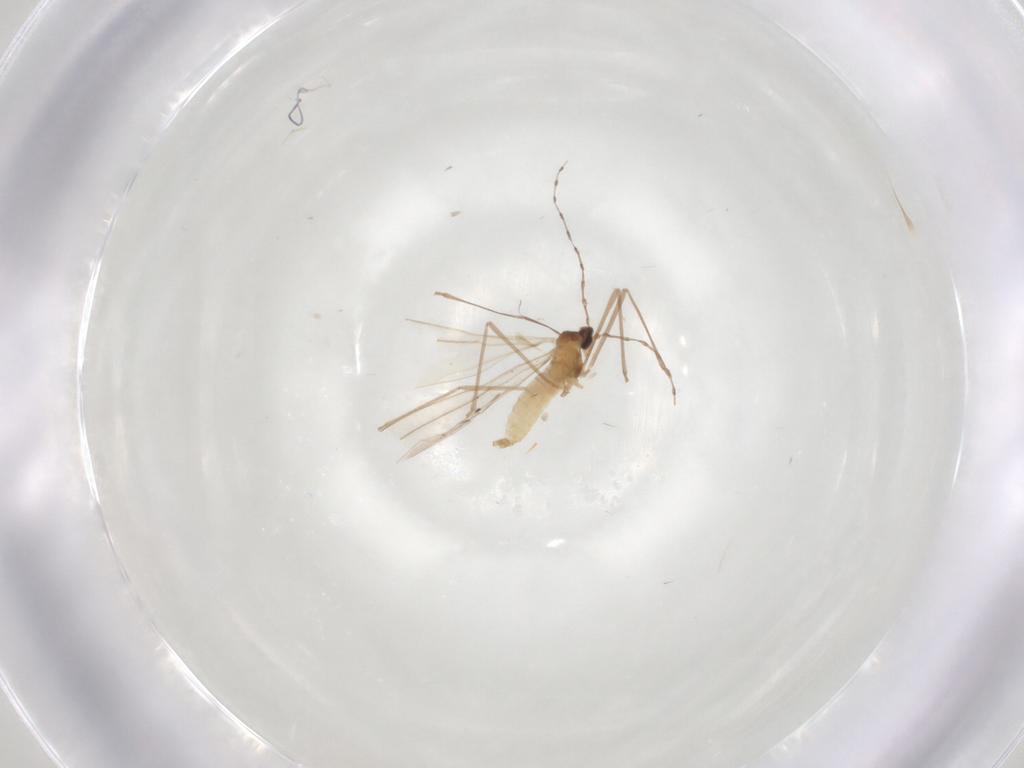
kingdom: Animalia
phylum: Arthropoda
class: Insecta
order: Diptera
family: Cecidomyiidae
